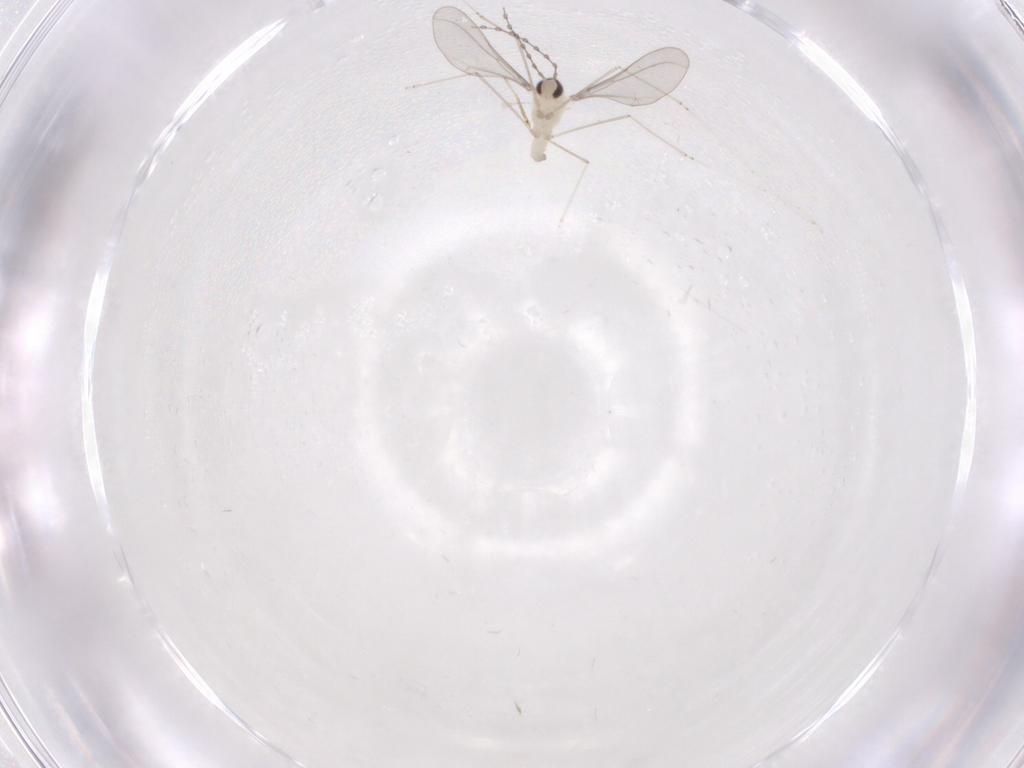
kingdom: Animalia
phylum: Arthropoda
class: Insecta
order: Diptera
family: Cecidomyiidae
